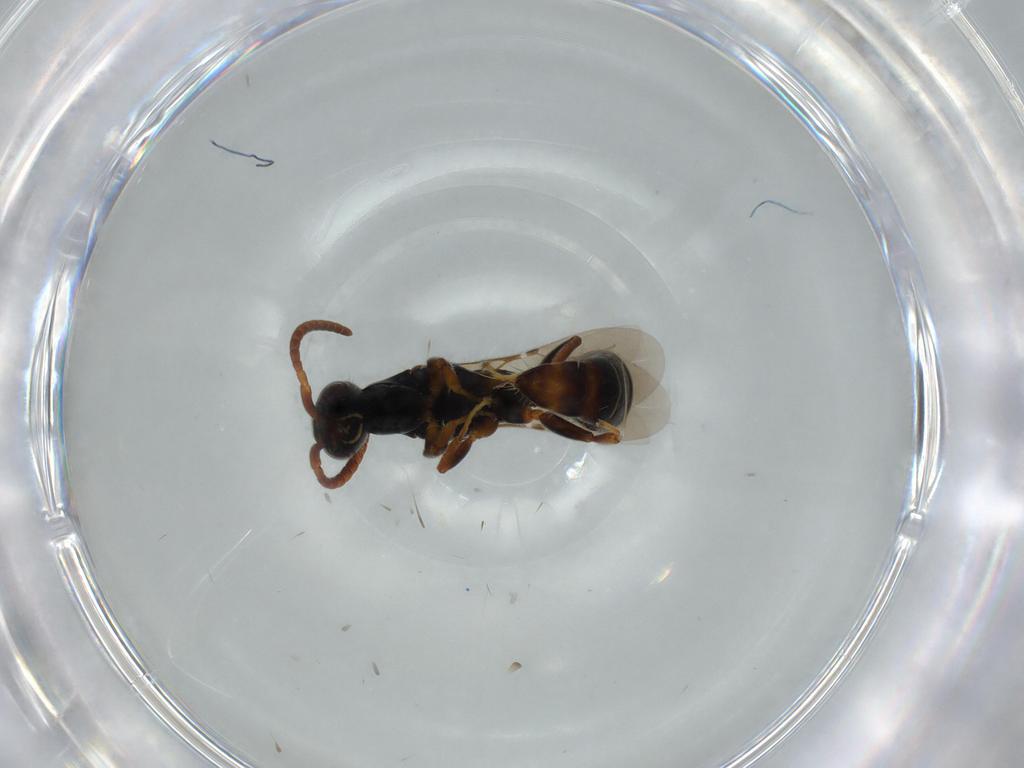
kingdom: Animalia
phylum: Arthropoda
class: Insecta
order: Hymenoptera
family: Bethylidae
